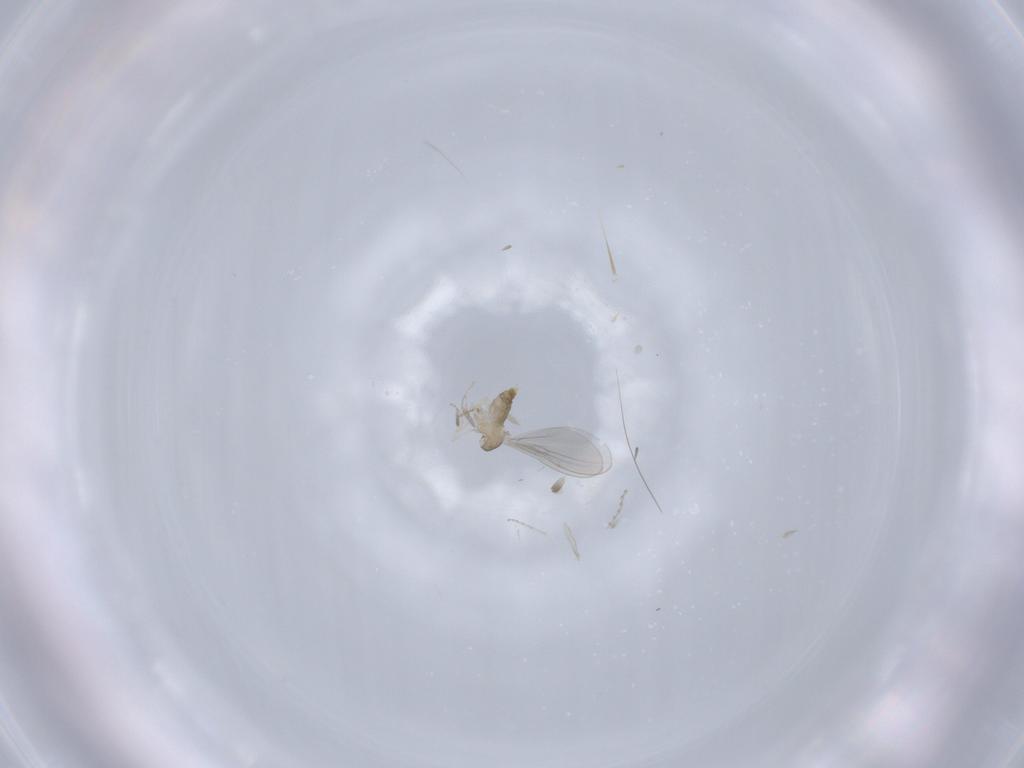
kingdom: Animalia
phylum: Arthropoda
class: Insecta
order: Diptera
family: Cecidomyiidae
